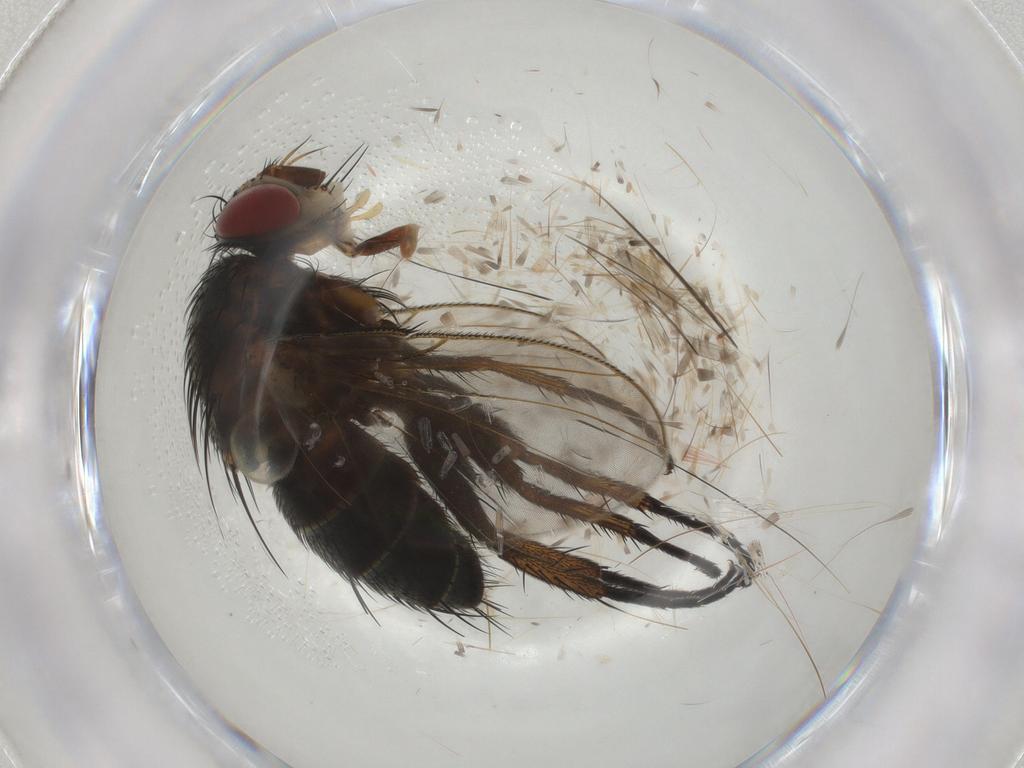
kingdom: Animalia
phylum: Arthropoda
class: Insecta
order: Diptera
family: Tachinidae
